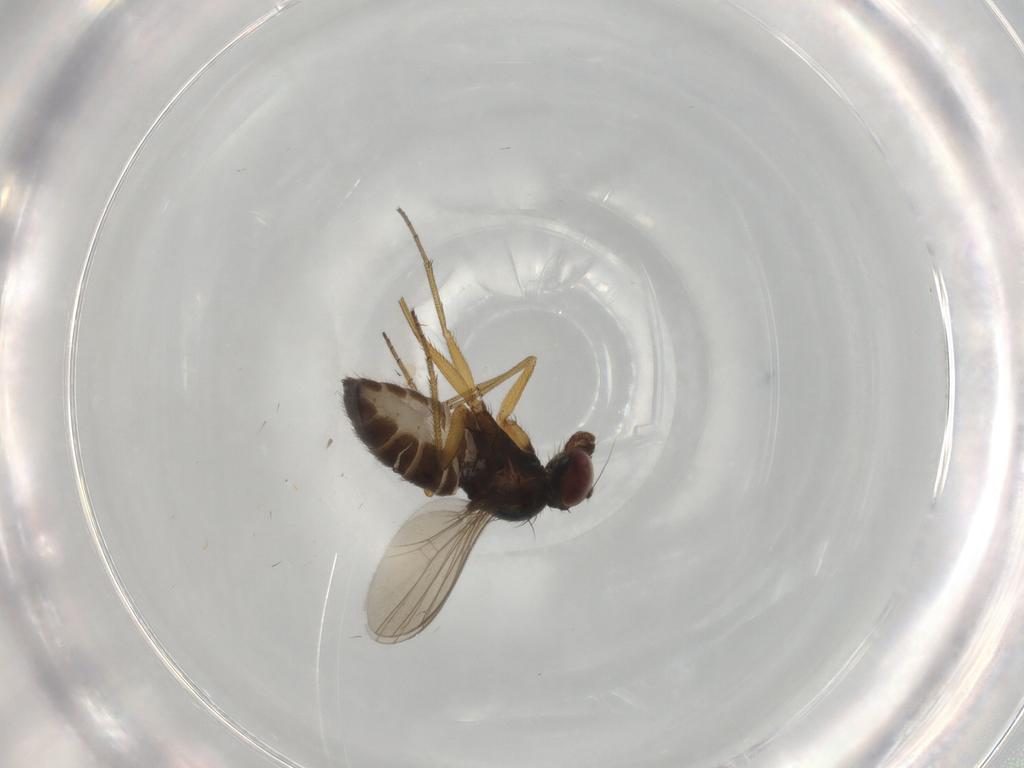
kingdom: Animalia
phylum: Arthropoda
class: Insecta
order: Diptera
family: Dolichopodidae
